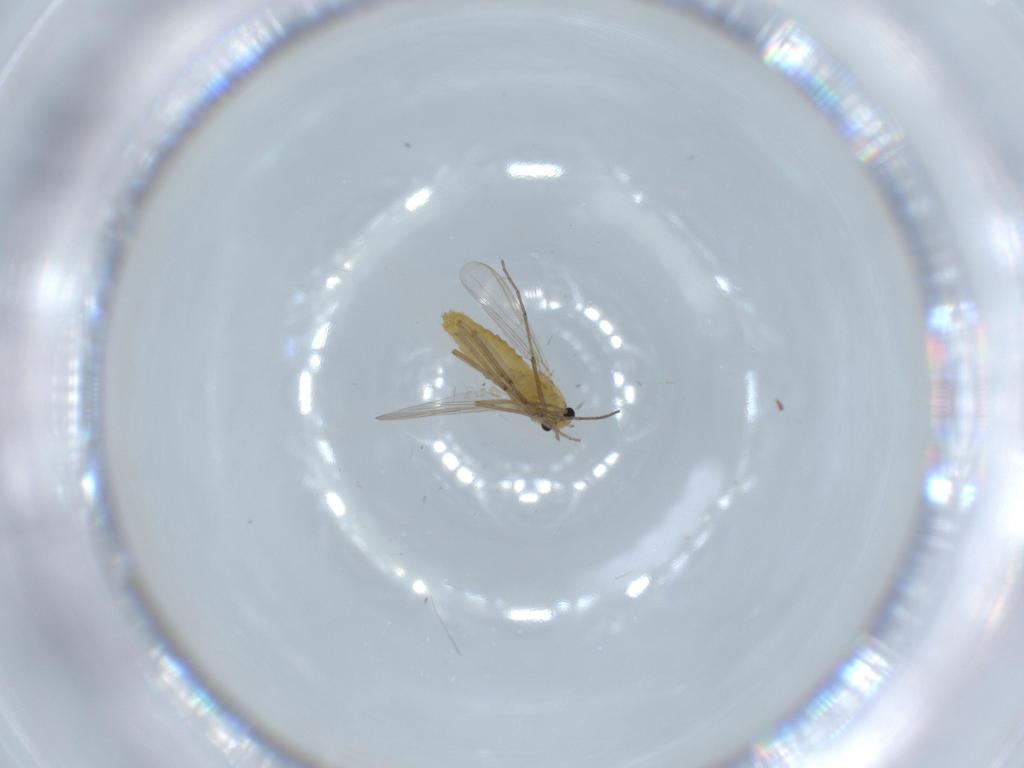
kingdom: Animalia
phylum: Arthropoda
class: Insecta
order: Diptera
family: Chironomidae
